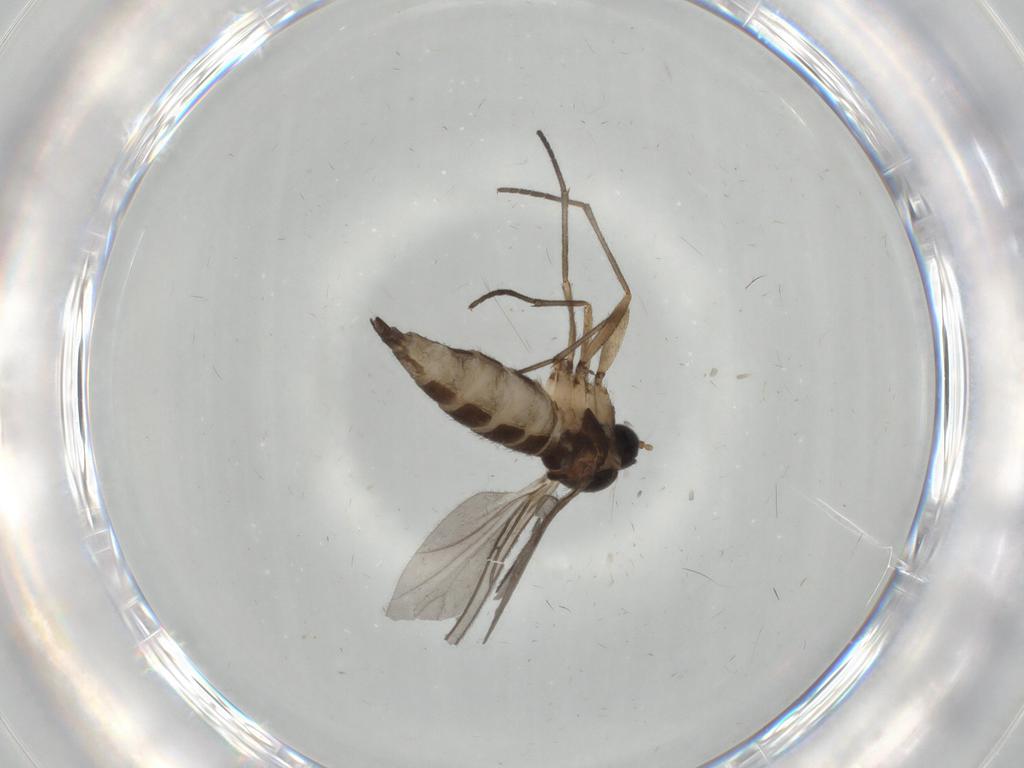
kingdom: Animalia
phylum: Arthropoda
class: Insecta
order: Diptera
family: Sciaridae
